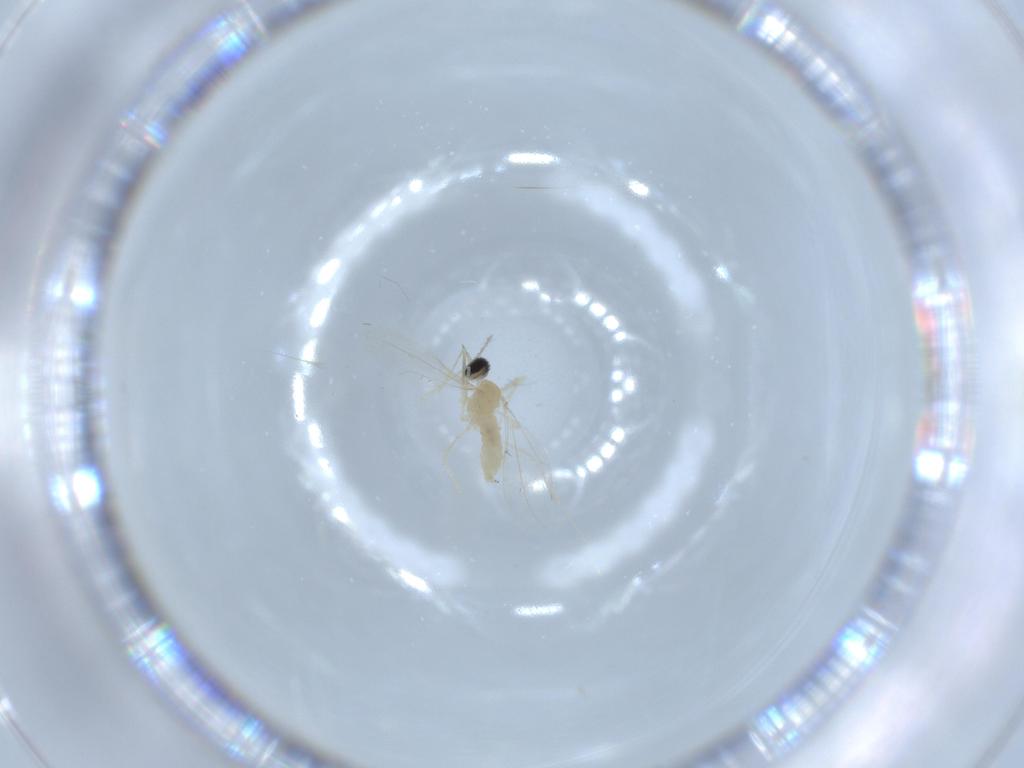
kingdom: Animalia
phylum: Arthropoda
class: Insecta
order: Diptera
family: Cecidomyiidae
